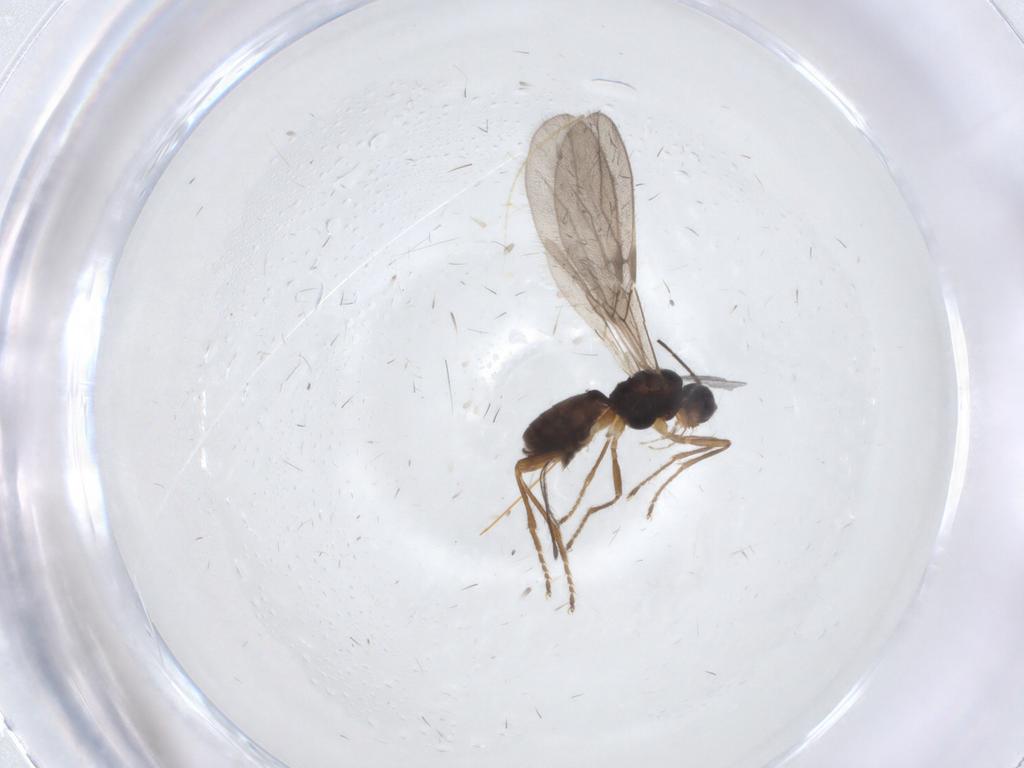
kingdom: Animalia
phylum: Arthropoda
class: Insecta
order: Hymenoptera
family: Braconidae
